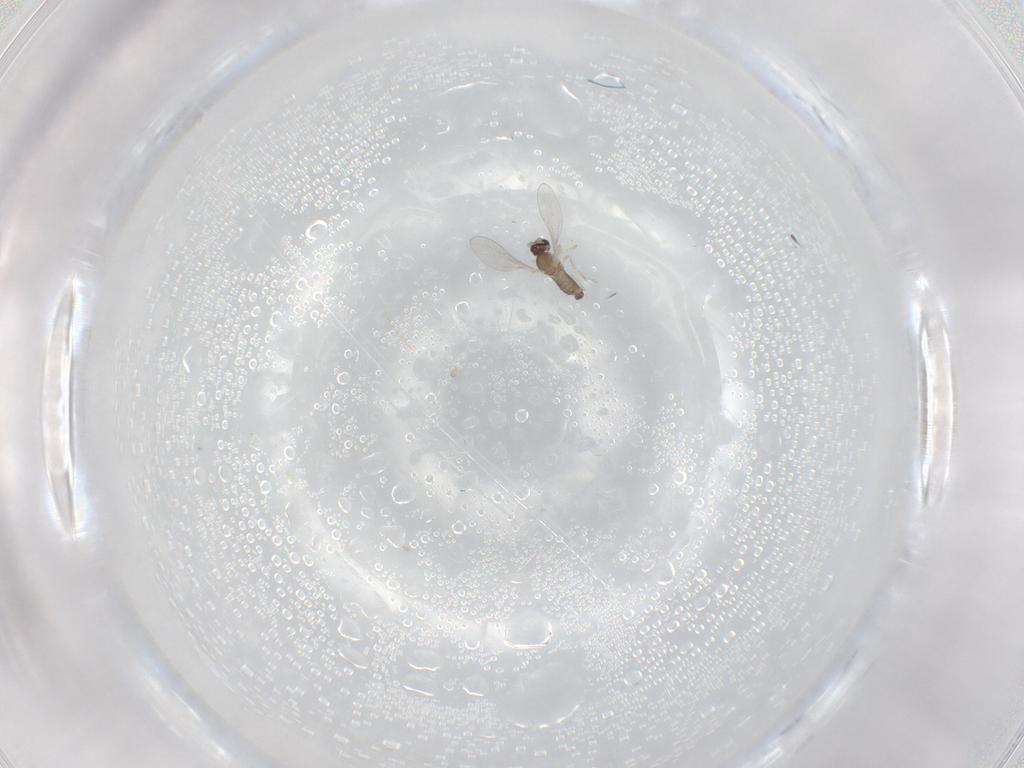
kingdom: Animalia
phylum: Arthropoda
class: Insecta
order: Diptera
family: Cecidomyiidae
